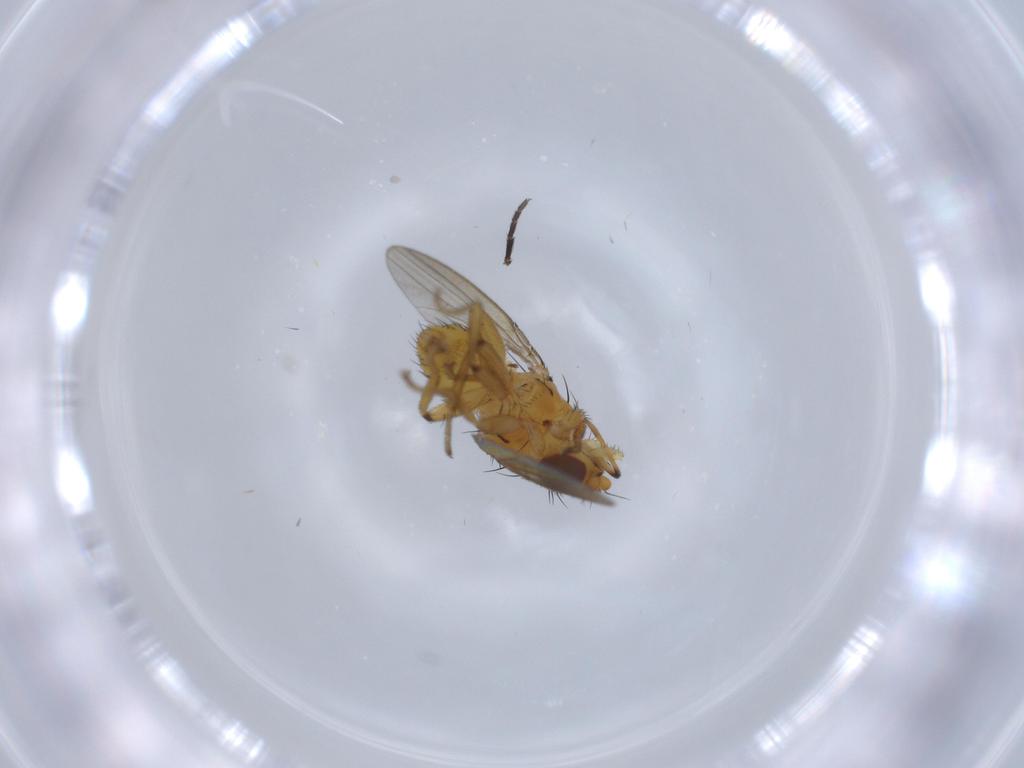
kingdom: Animalia
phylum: Arthropoda
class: Insecta
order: Diptera
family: Milichiidae
